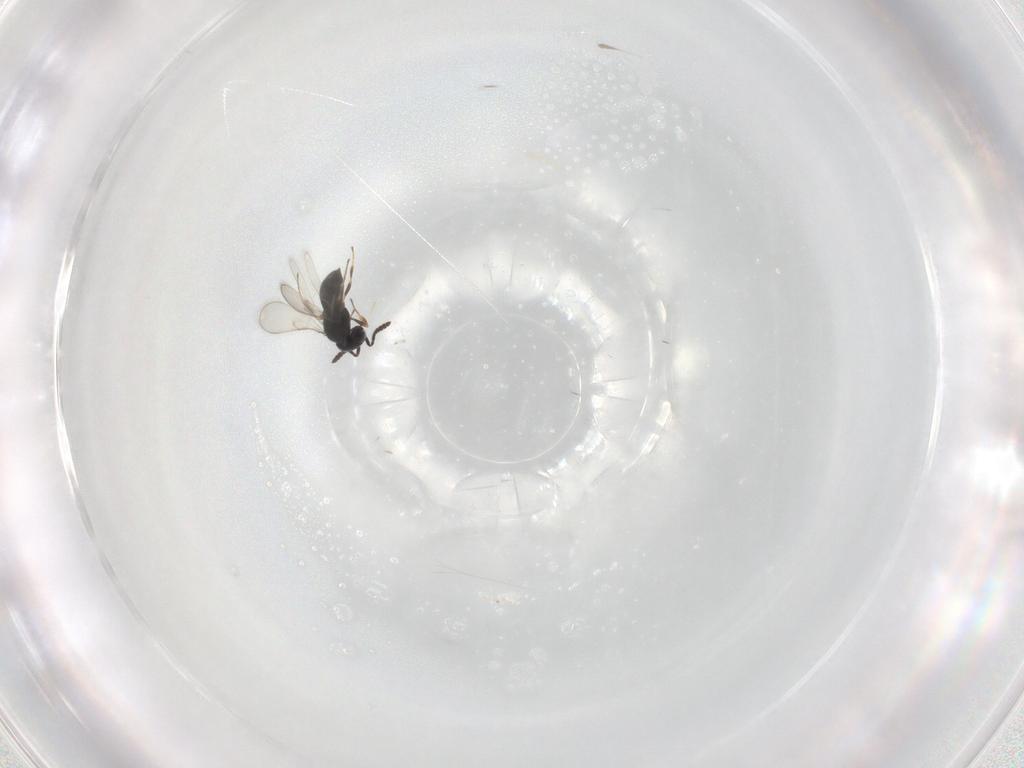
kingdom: Animalia
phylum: Arthropoda
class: Insecta
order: Hymenoptera
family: Scelionidae
